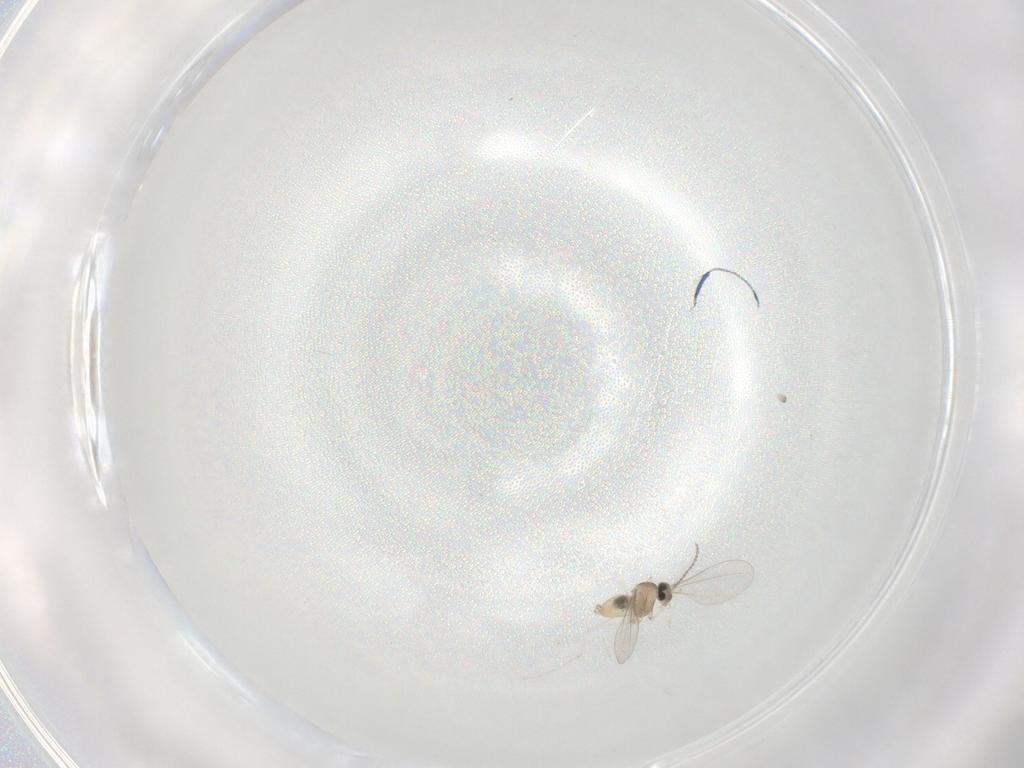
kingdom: Animalia
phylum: Arthropoda
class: Insecta
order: Diptera
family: Cecidomyiidae
